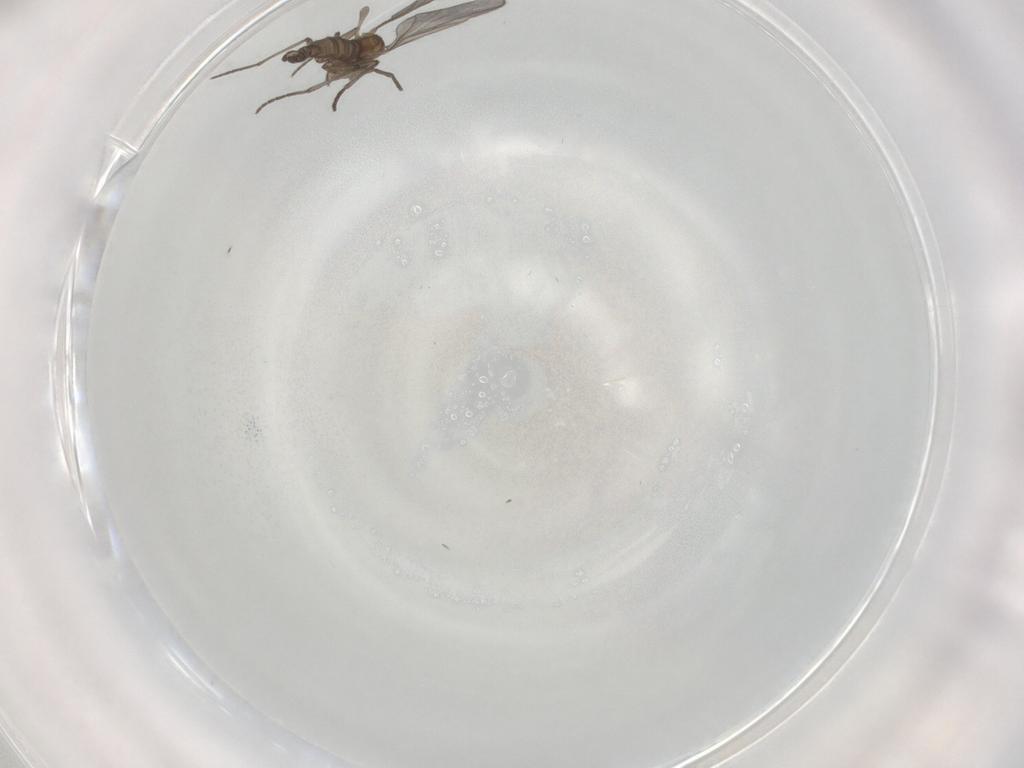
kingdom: Animalia
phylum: Arthropoda
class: Insecta
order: Diptera
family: Sciaridae
